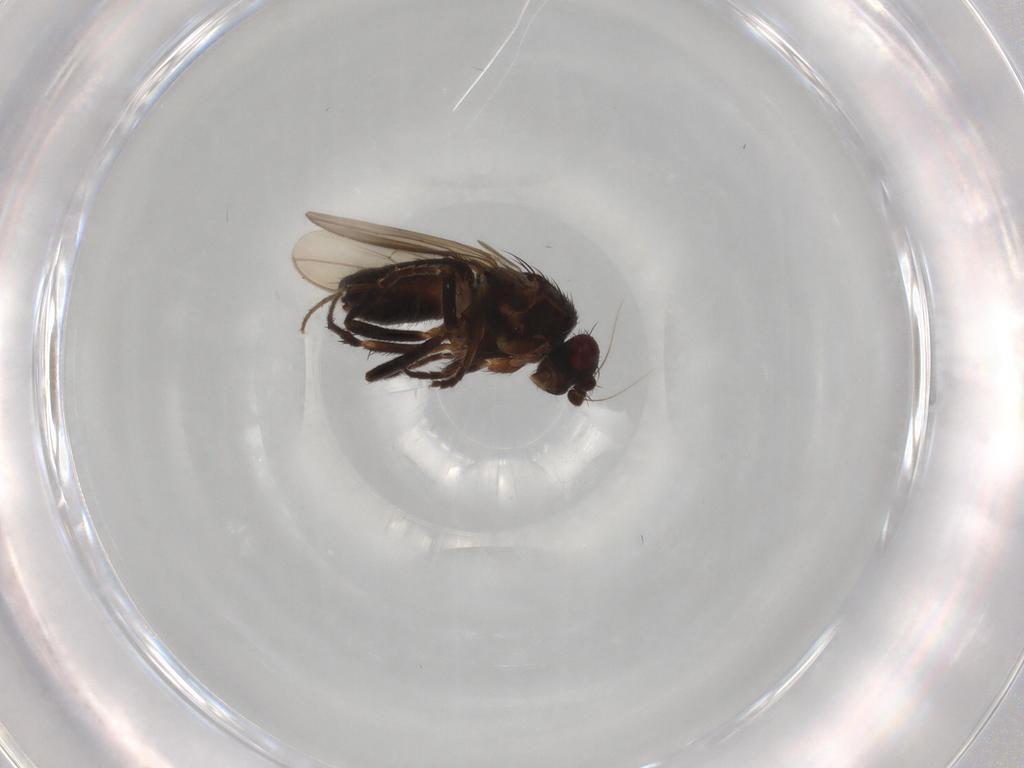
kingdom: Animalia
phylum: Arthropoda
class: Insecta
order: Diptera
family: Sphaeroceridae
